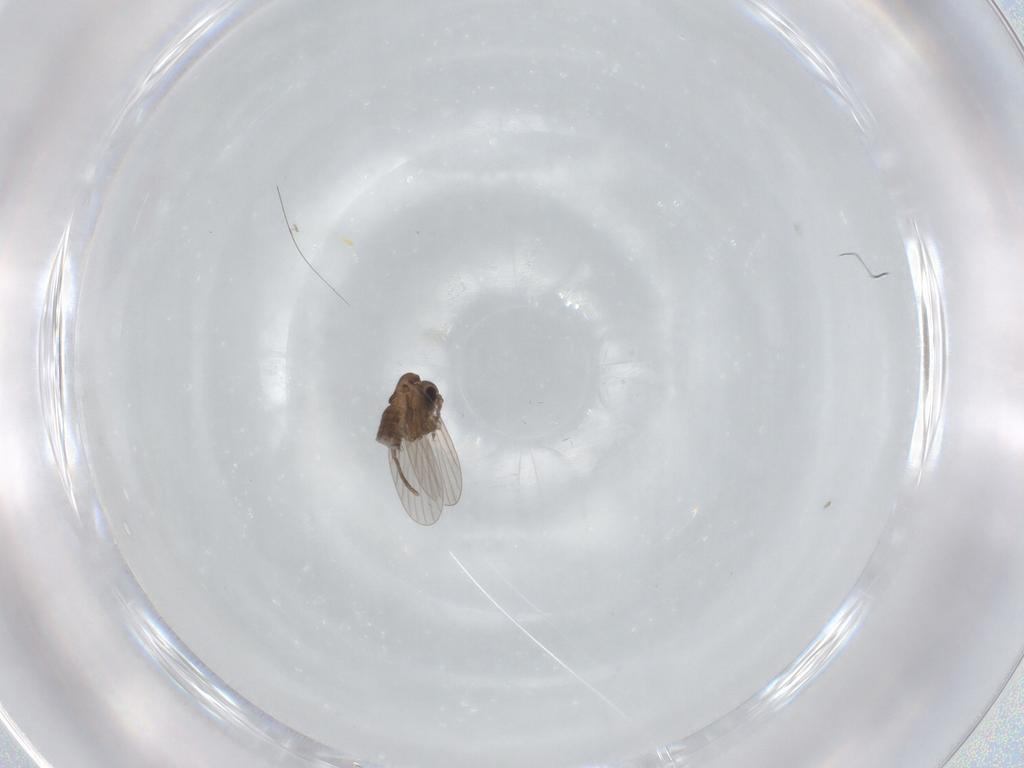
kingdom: Animalia
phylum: Arthropoda
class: Insecta
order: Diptera
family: Psychodidae
